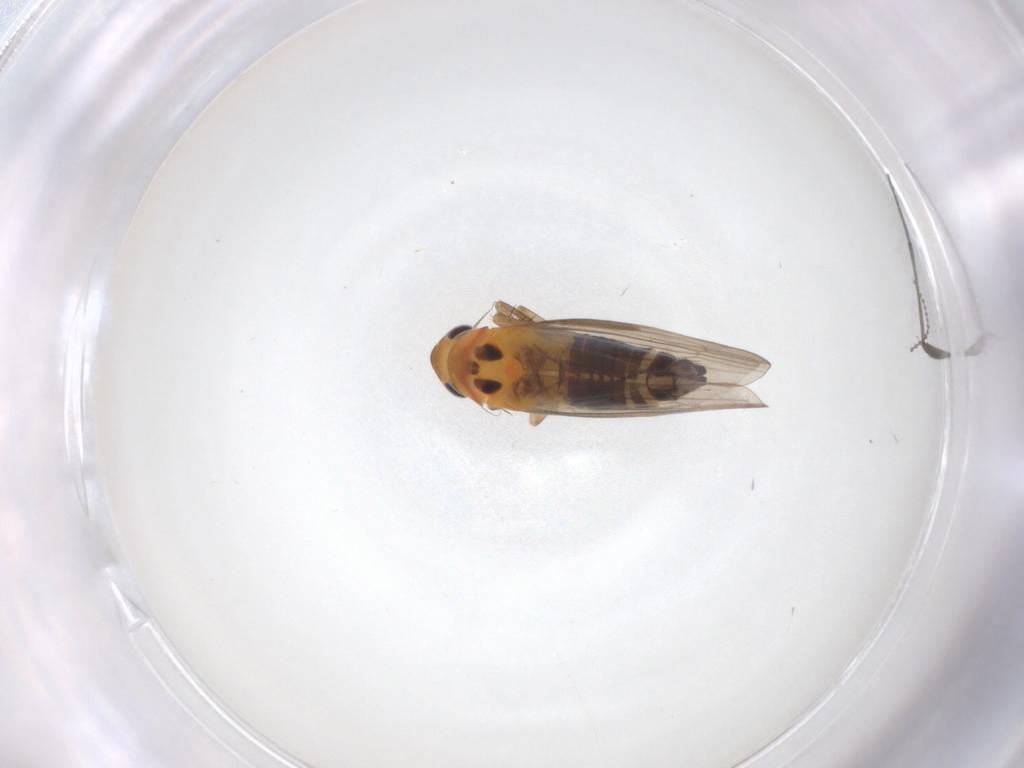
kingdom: Animalia
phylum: Arthropoda
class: Insecta
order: Hemiptera
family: Cicadellidae
